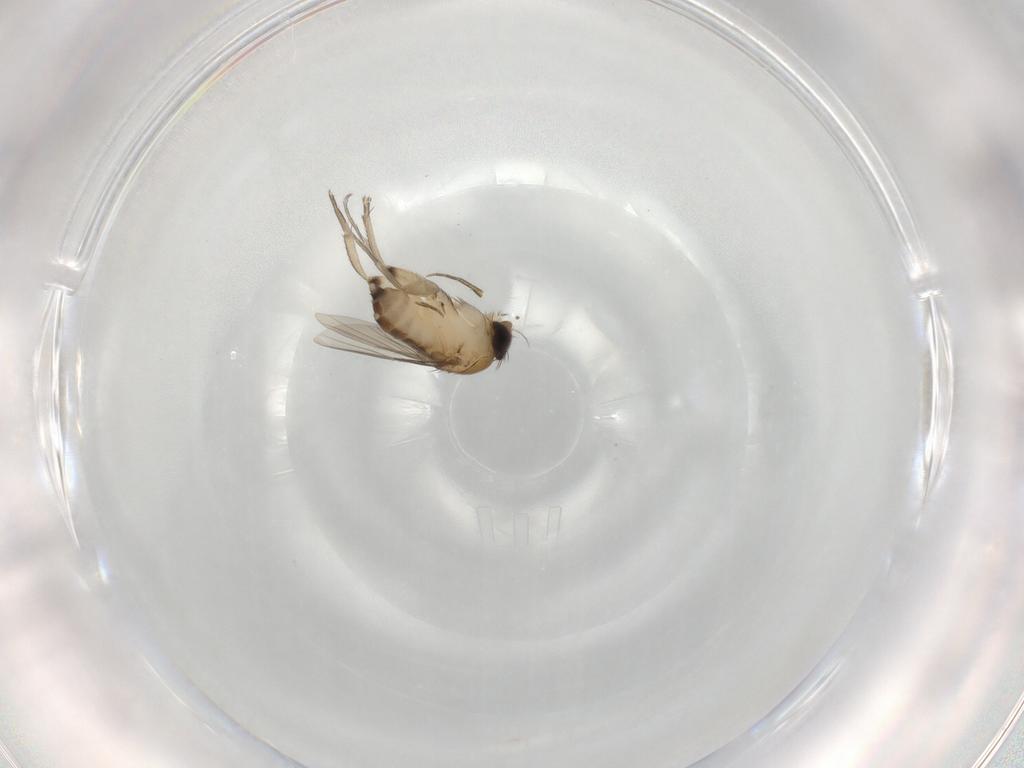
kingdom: Animalia
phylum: Arthropoda
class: Insecta
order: Diptera
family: Phoridae
